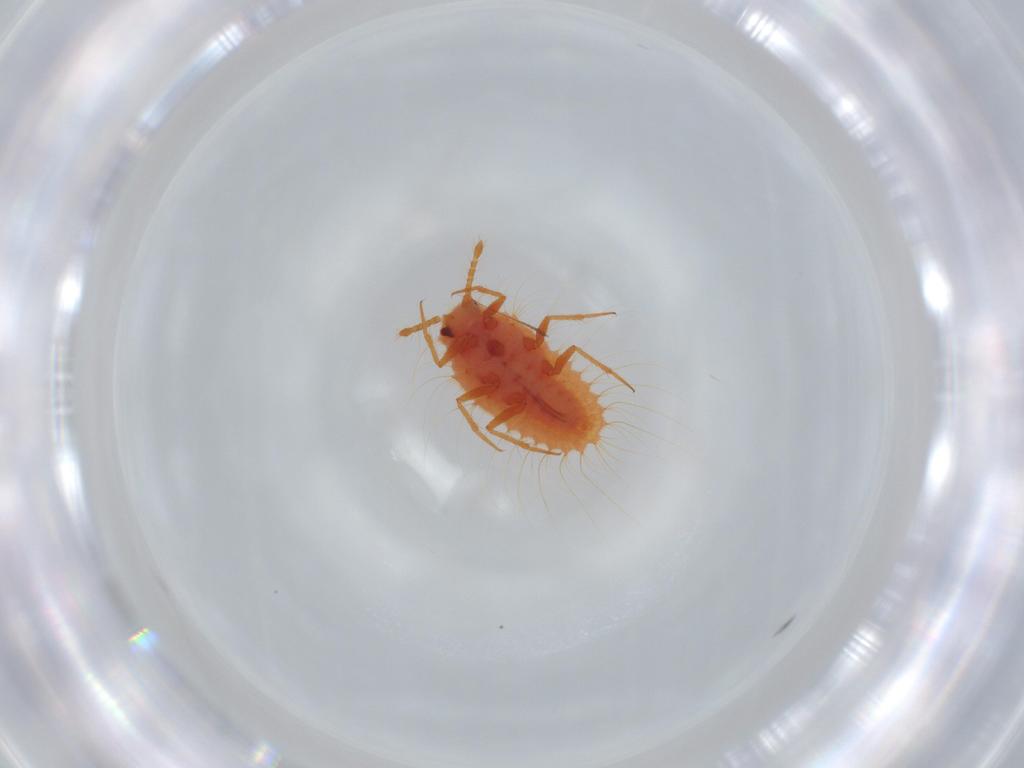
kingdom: Animalia
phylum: Arthropoda
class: Insecta
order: Hemiptera
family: Cicadellidae
